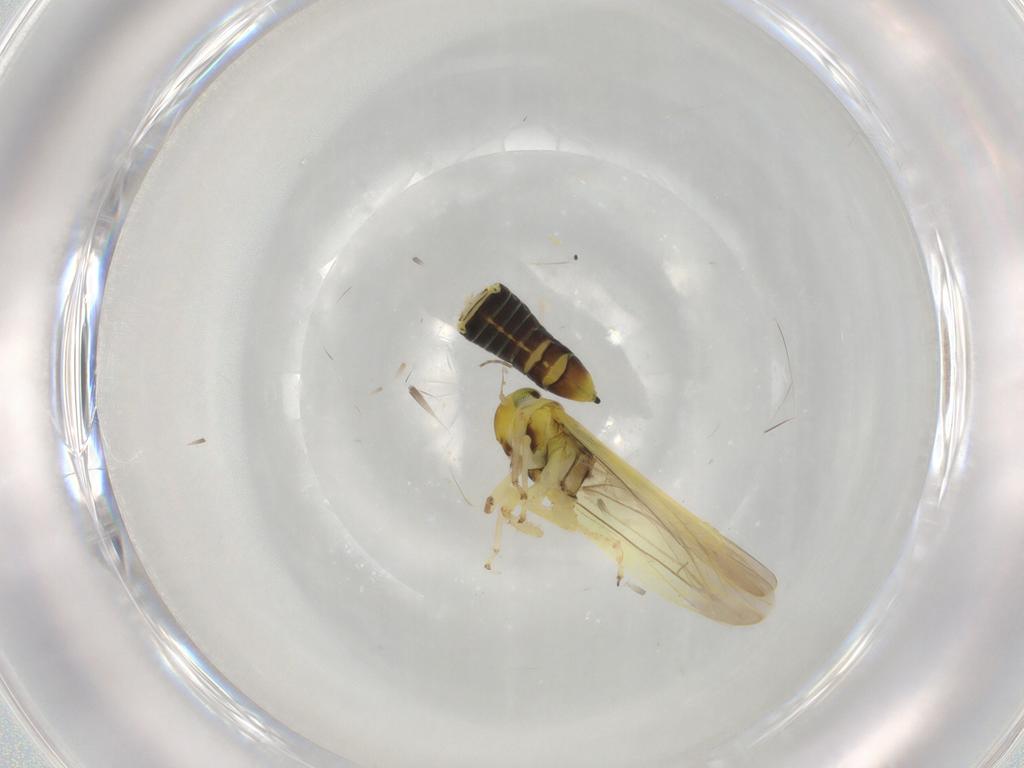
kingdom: Animalia
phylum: Arthropoda
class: Insecta
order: Hemiptera
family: Cicadellidae
